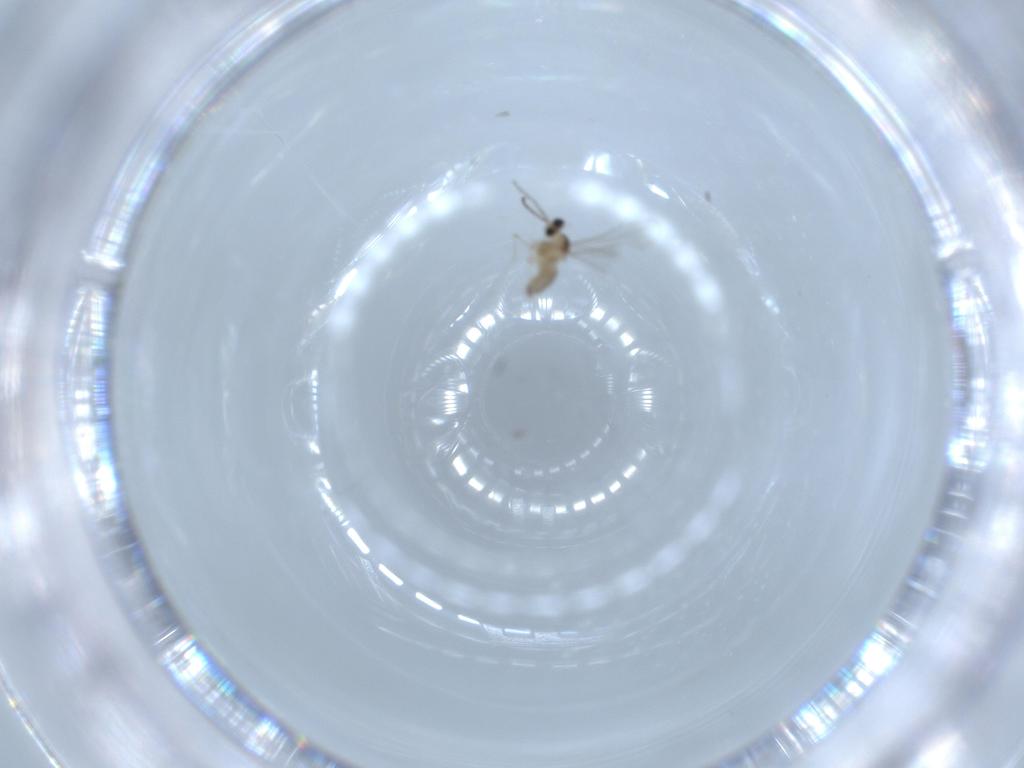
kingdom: Animalia
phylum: Arthropoda
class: Insecta
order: Diptera
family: Cecidomyiidae
